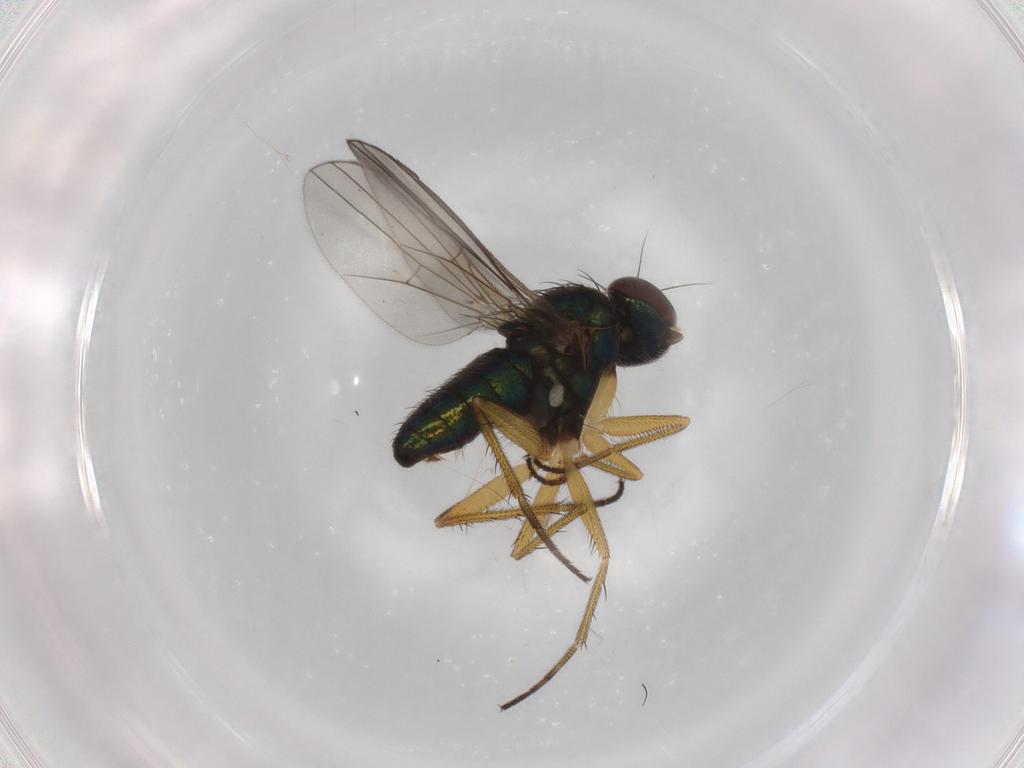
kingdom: Animalia
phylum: Arthropoda
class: Insecta
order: Diptera
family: Dolichopodidae
